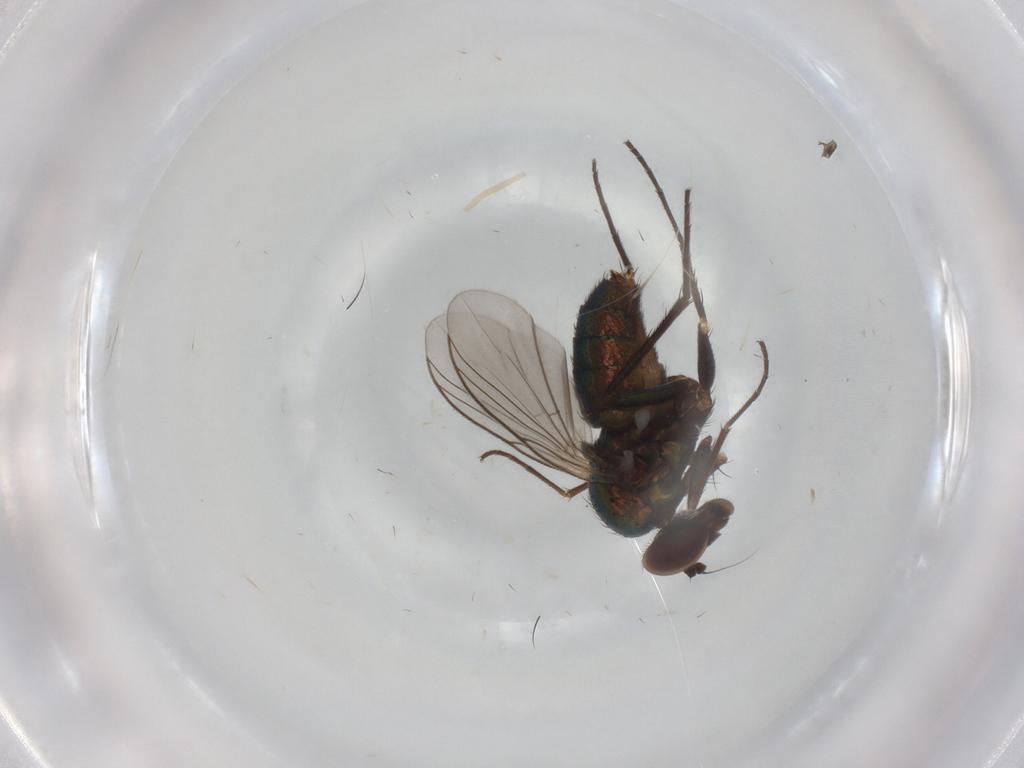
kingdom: Animalia
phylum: Arthropoda
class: Insecta
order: Diptera
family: Dolichopodidae
